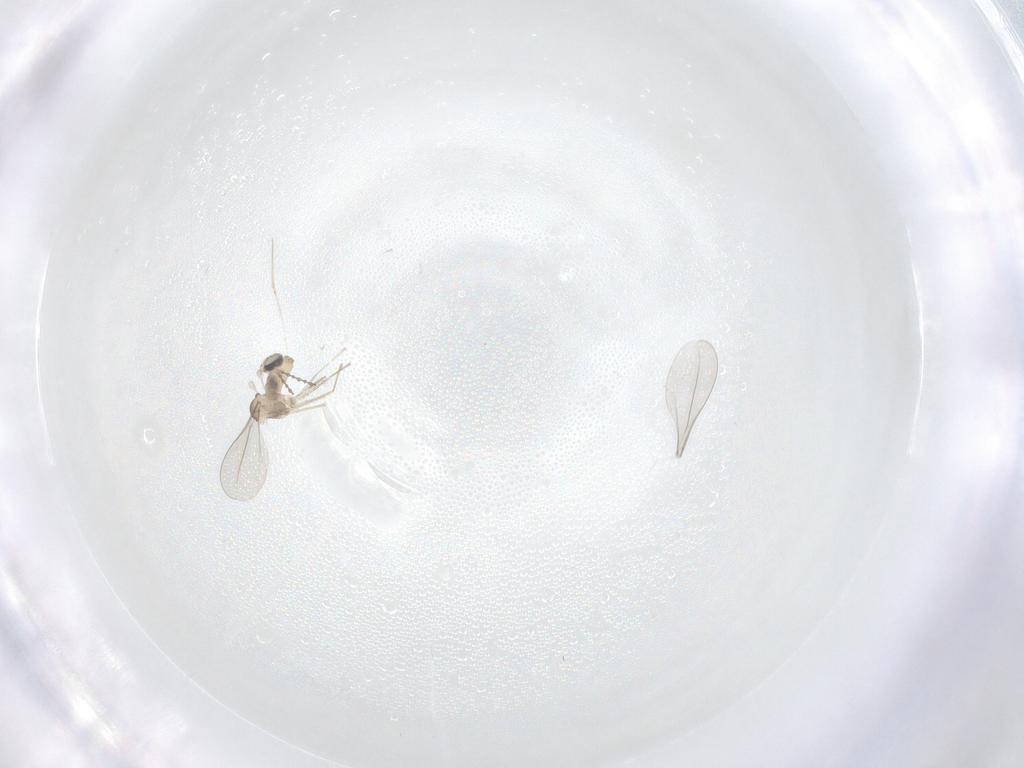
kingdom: Animalia
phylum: Arthropoda
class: Insecta
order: Diptera
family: Cecidomyiidae
